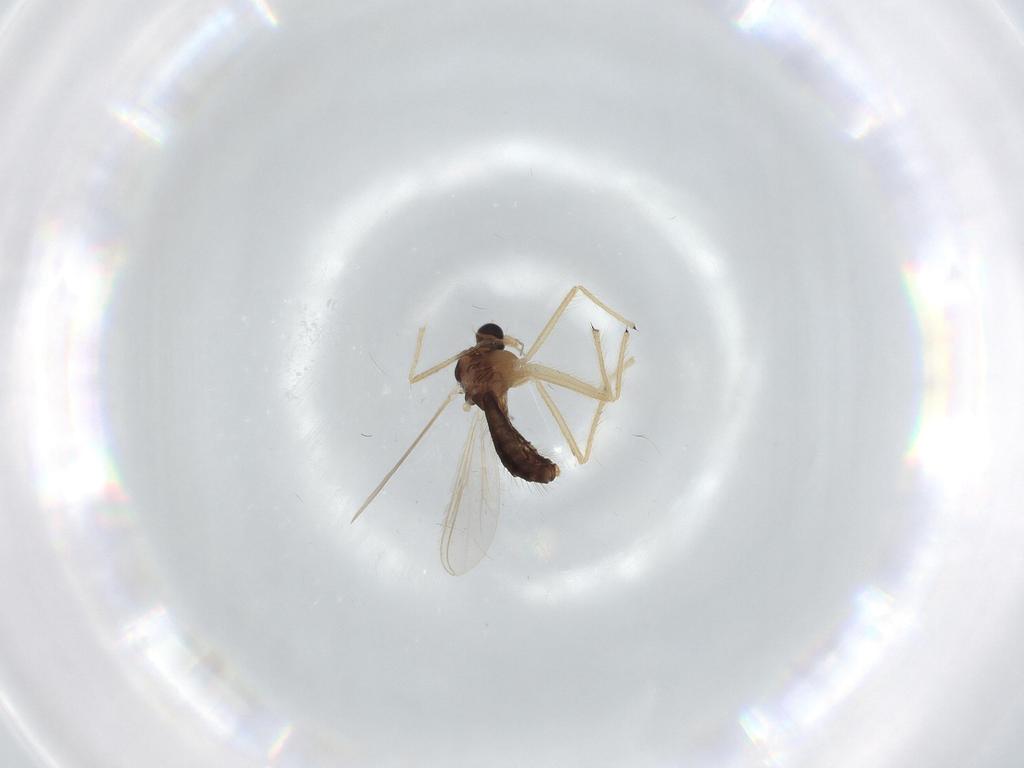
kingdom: Animalia
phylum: Arthropoda
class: Insecta
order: Diptera
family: Chironomidae
